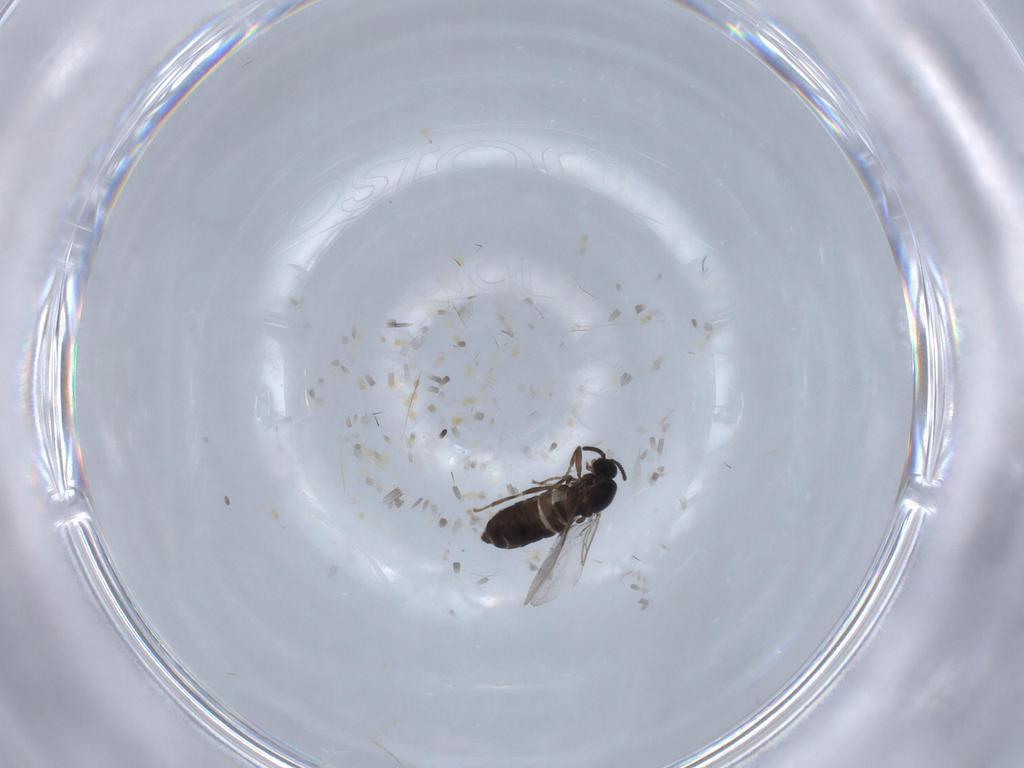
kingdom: Animalia
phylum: Arthropoda
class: Insecta
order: Diptera
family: Scatopsidae
